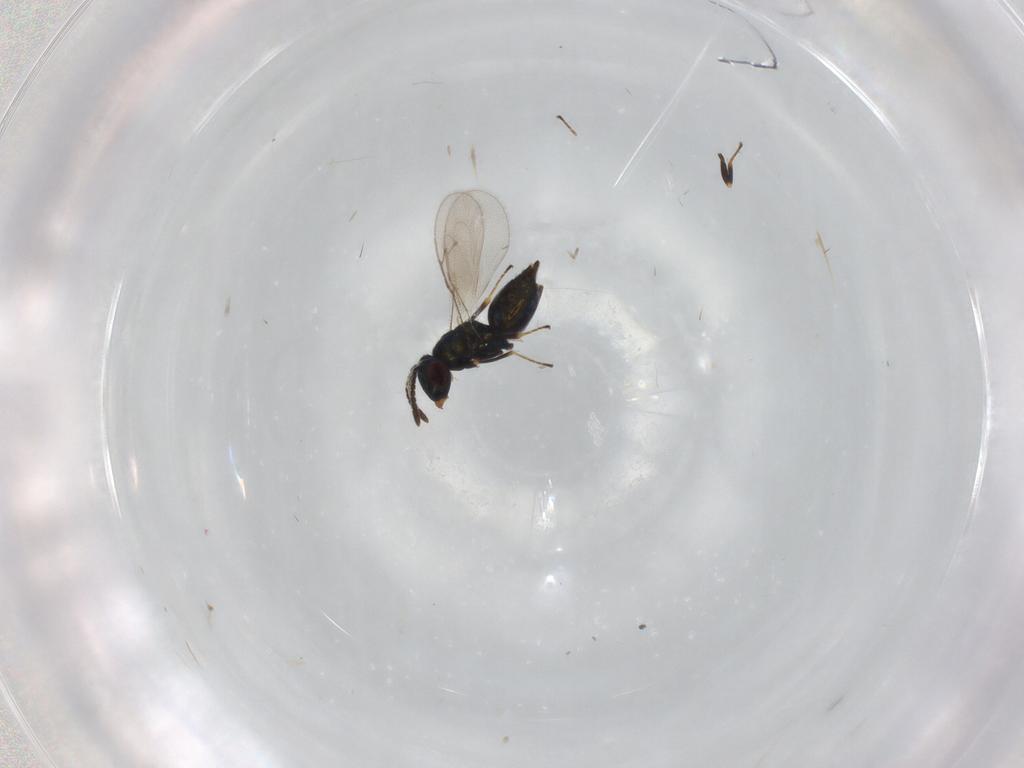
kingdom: Animalia
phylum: Arthropoda
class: Insecta
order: Hymenoptera
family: Pteromalidae
